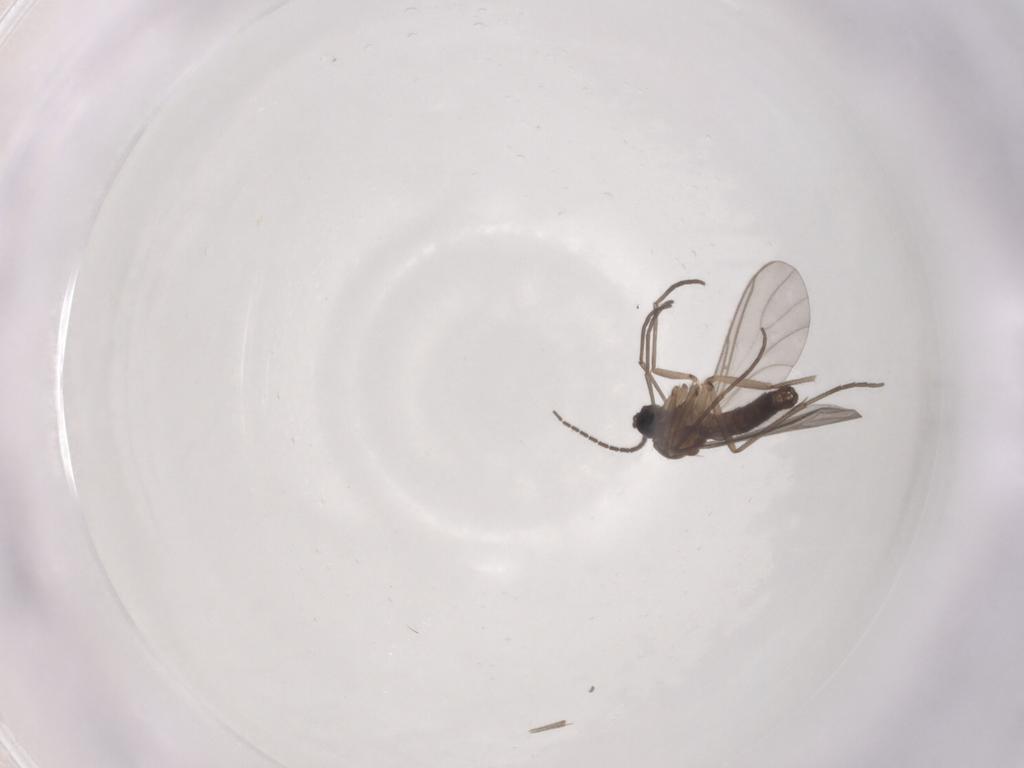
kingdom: Animalia
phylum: Arthropoda
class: Insecta
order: Diptera
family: Sciaridae
